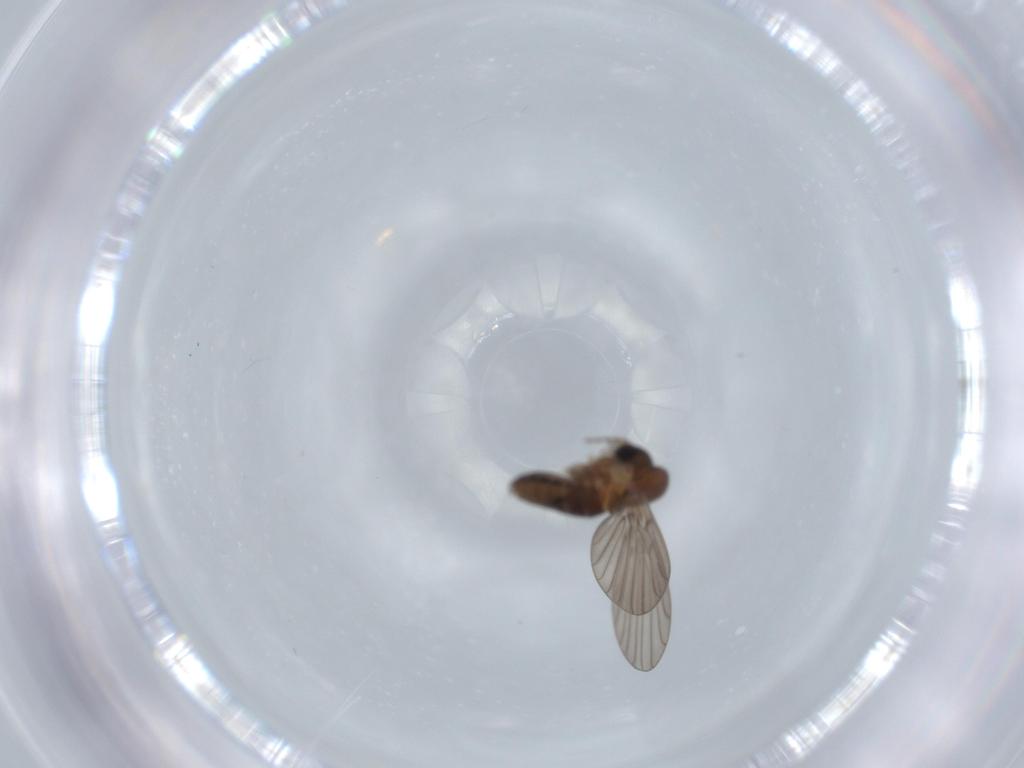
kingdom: Animalia
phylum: Arthropoda
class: Insecta
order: Diptera
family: Psychodidae
